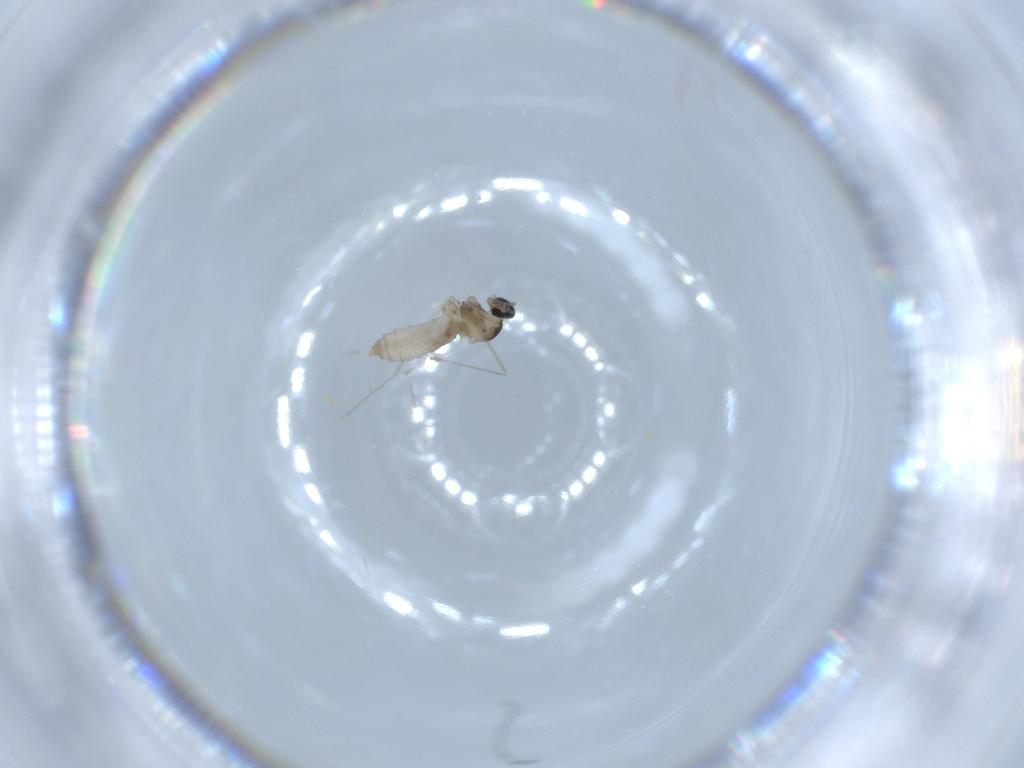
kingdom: Animalia
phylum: Arthropoda
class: Insecta
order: Diptera
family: Cecidomyiidae
